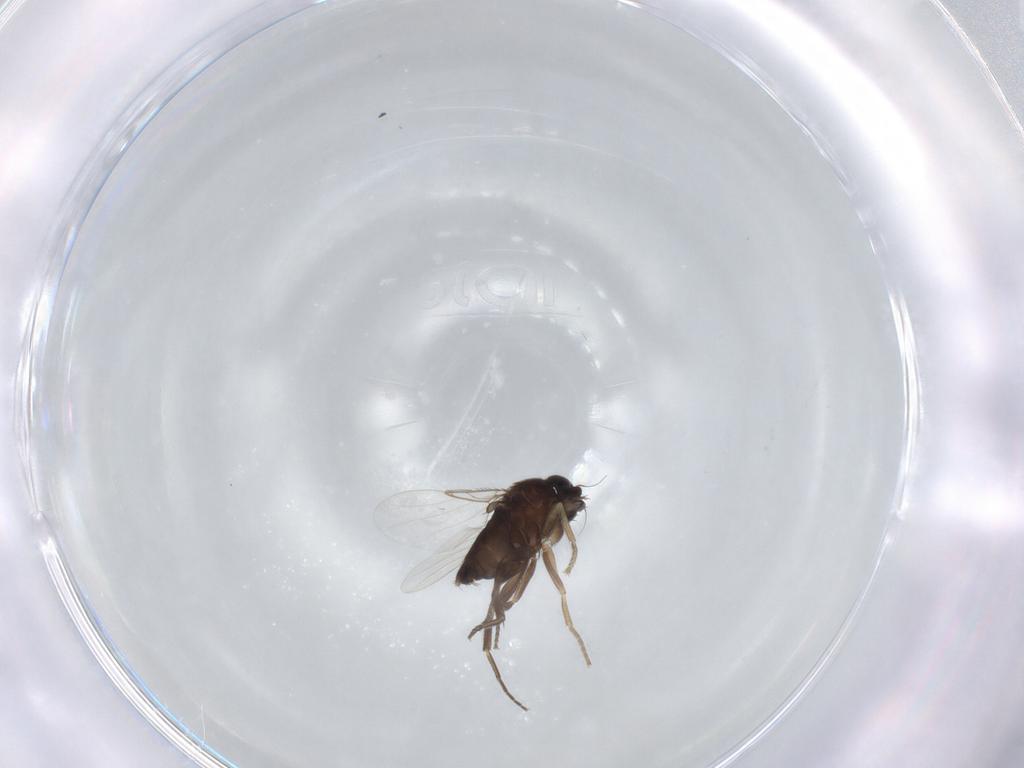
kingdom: Animalia
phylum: Arthropoda
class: Insecta
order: Diptera
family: Phoridae
